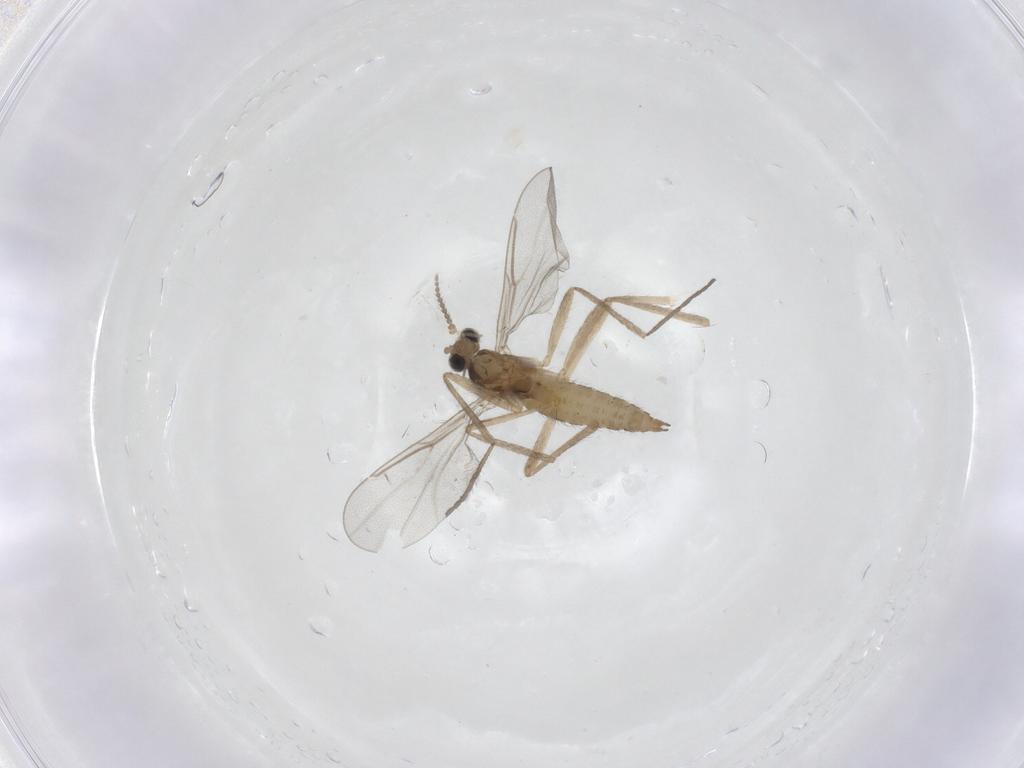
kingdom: Animalia
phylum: Arthropoda
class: Insecta
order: Diptera
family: Cecidomyiidae
